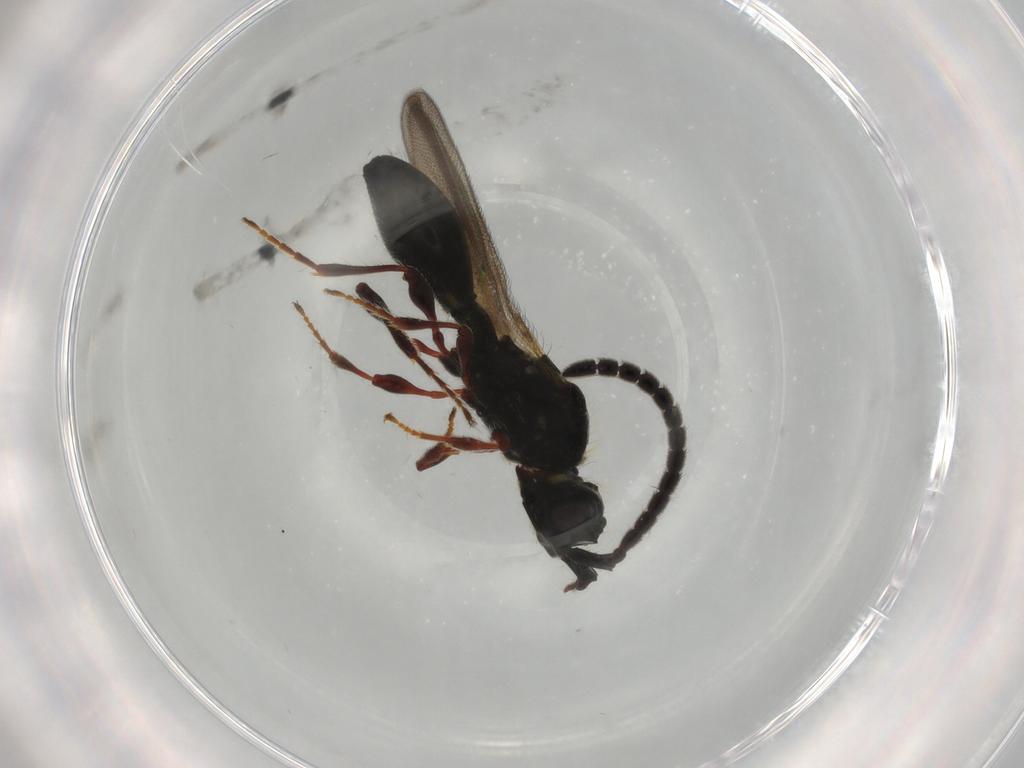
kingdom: Animalia
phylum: Arthropoda
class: Insecta
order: Hymenoptera
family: Diapriidae
